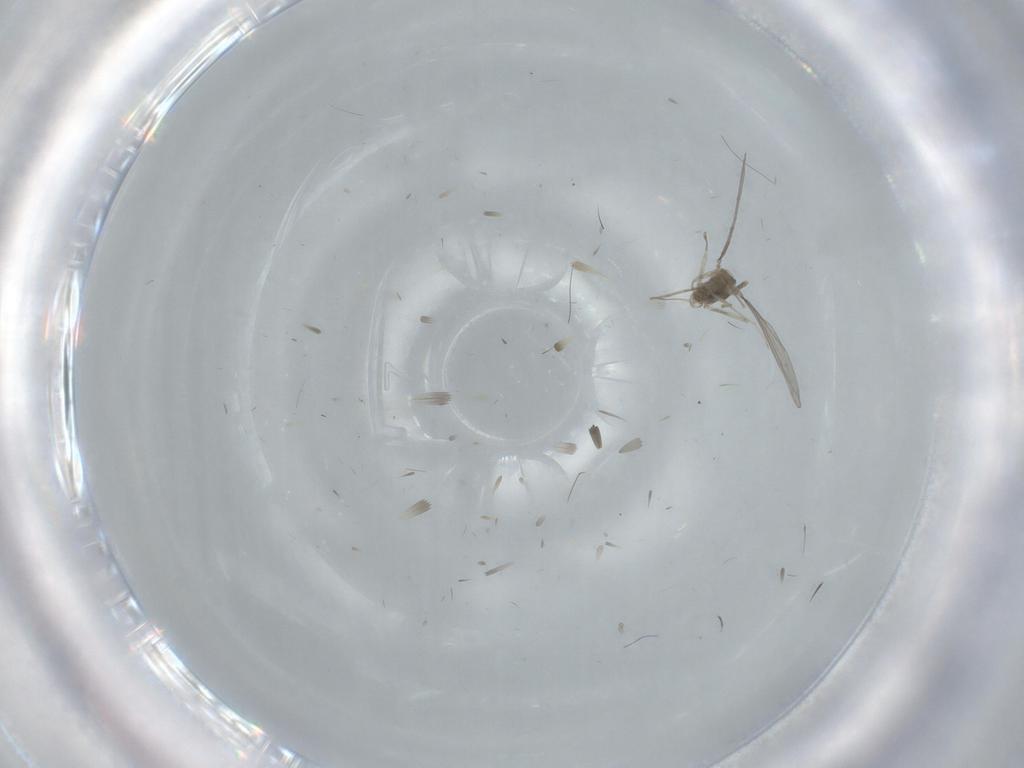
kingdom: Animalia
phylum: Arthropoda
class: Insecta
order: Diptera
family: Cecidomyiidae
